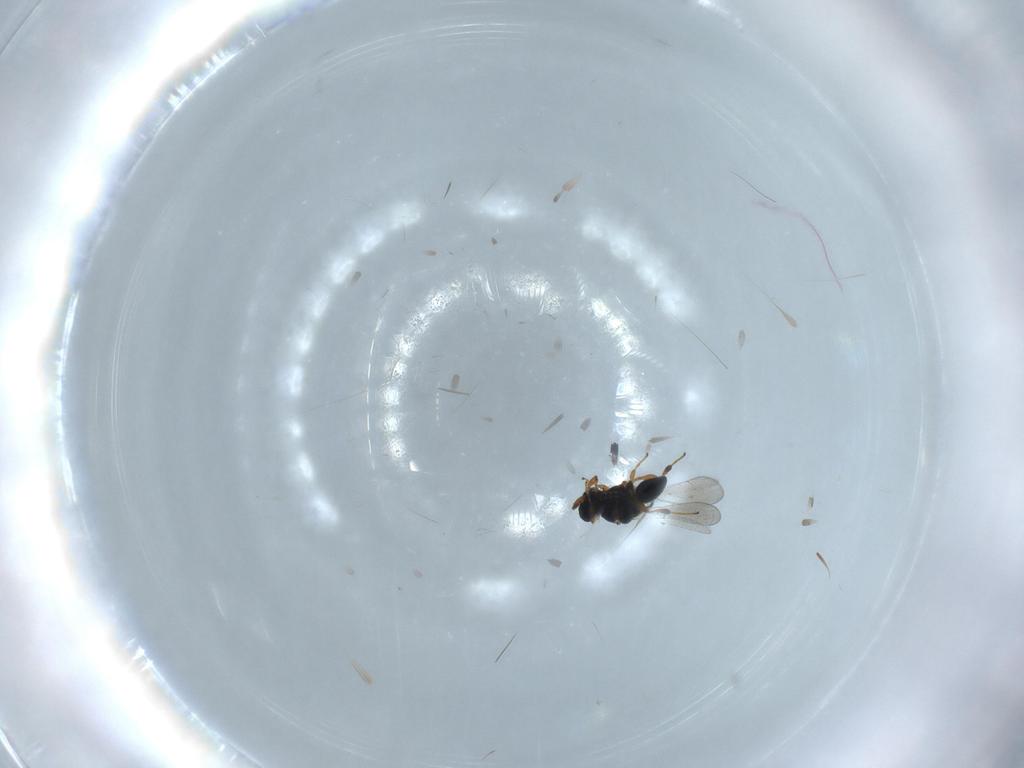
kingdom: Animalia
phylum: Arthropoda
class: Insecta
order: Hymenoptera
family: Platygastridae
